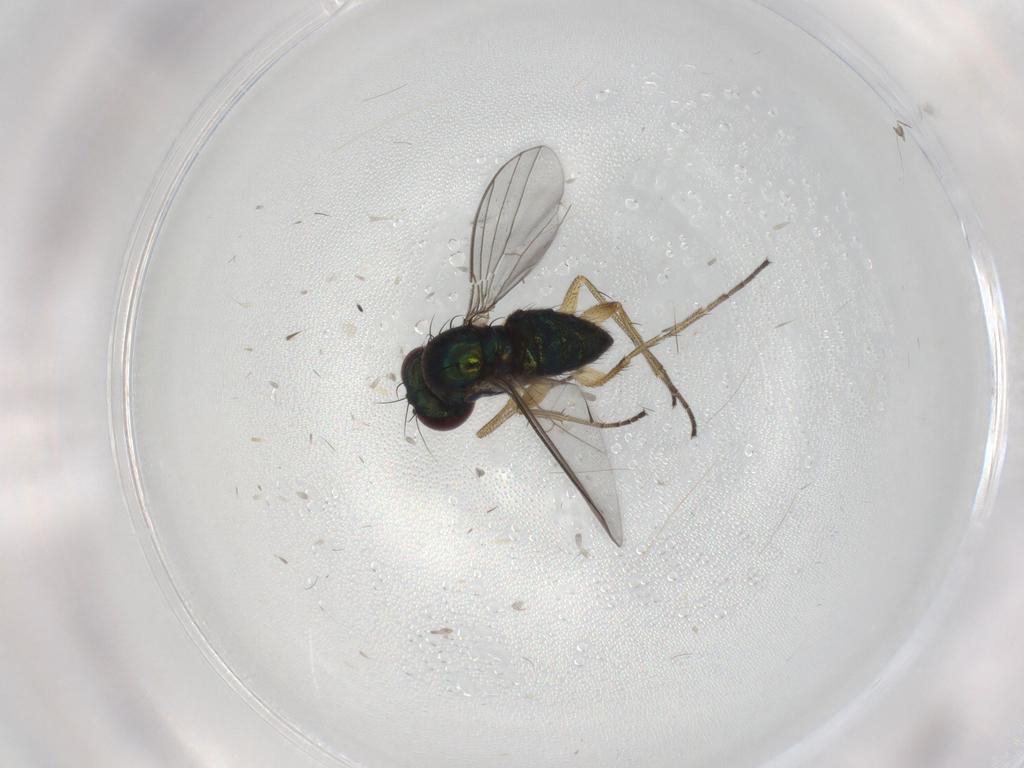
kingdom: Animalia
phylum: Arthropoda
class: Insecta
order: Diptera
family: Dolichopodidae
